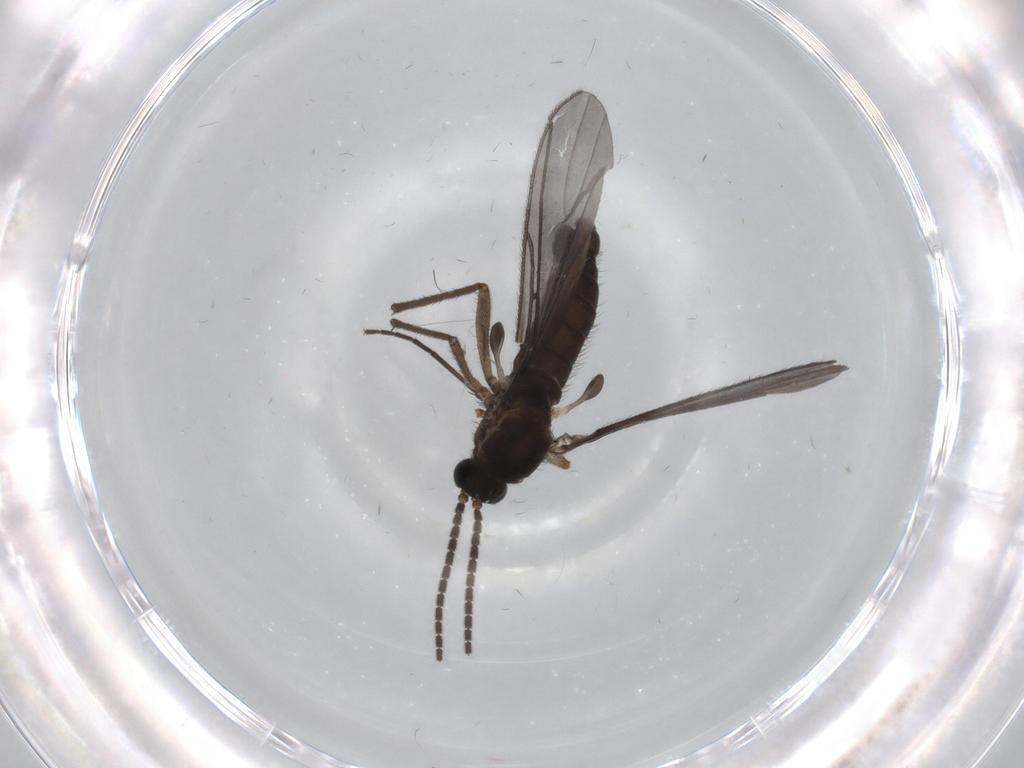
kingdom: Animalia
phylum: Arthropoda
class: Insecta
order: Diptera
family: Sciaridae
